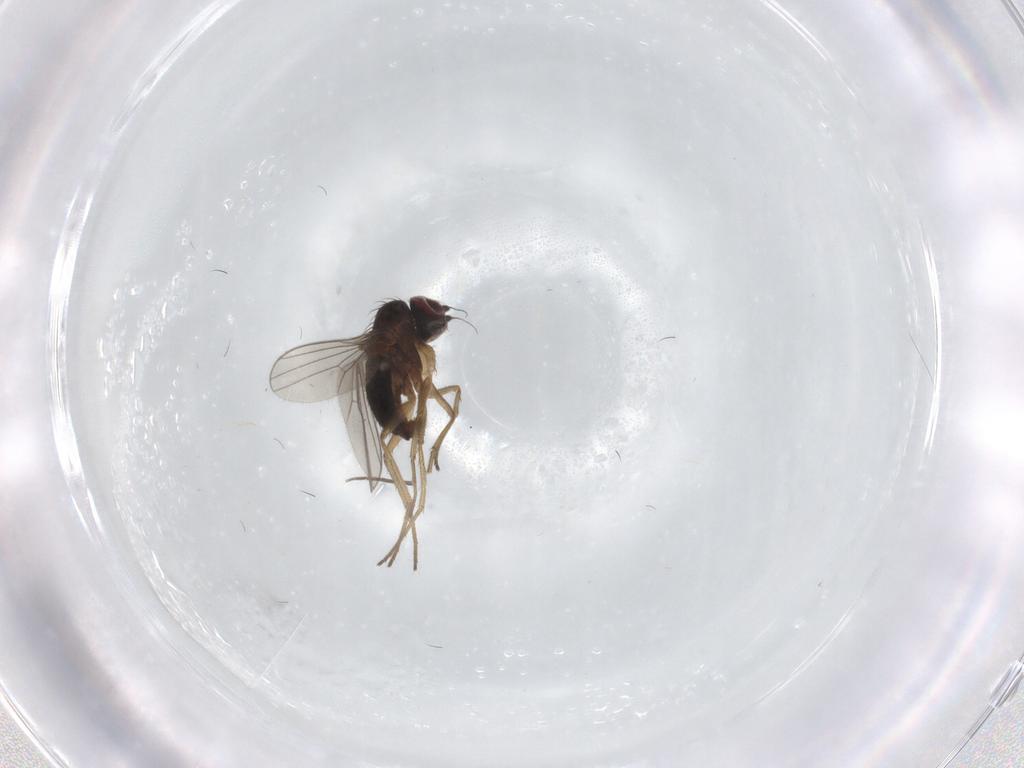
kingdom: Animalia
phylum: Arthropoda
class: Insecta
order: Diptera
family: Dolichopodidae
